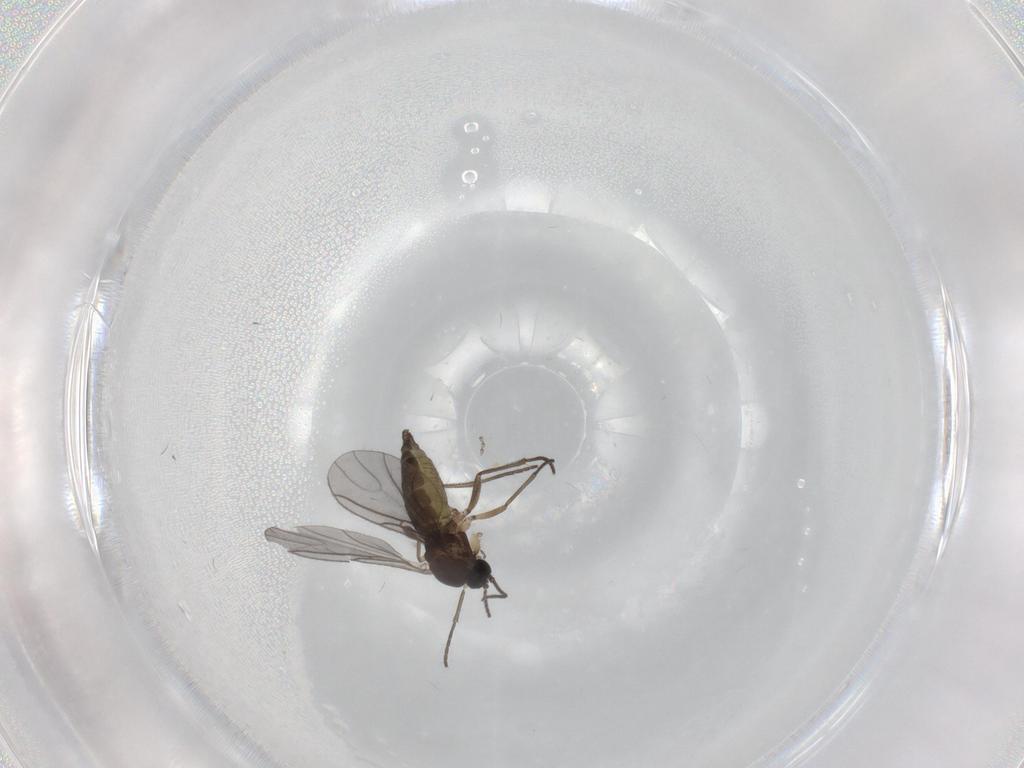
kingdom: Animalia
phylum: Arthropoda
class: Insecta
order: Diptera
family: Sciaridae
